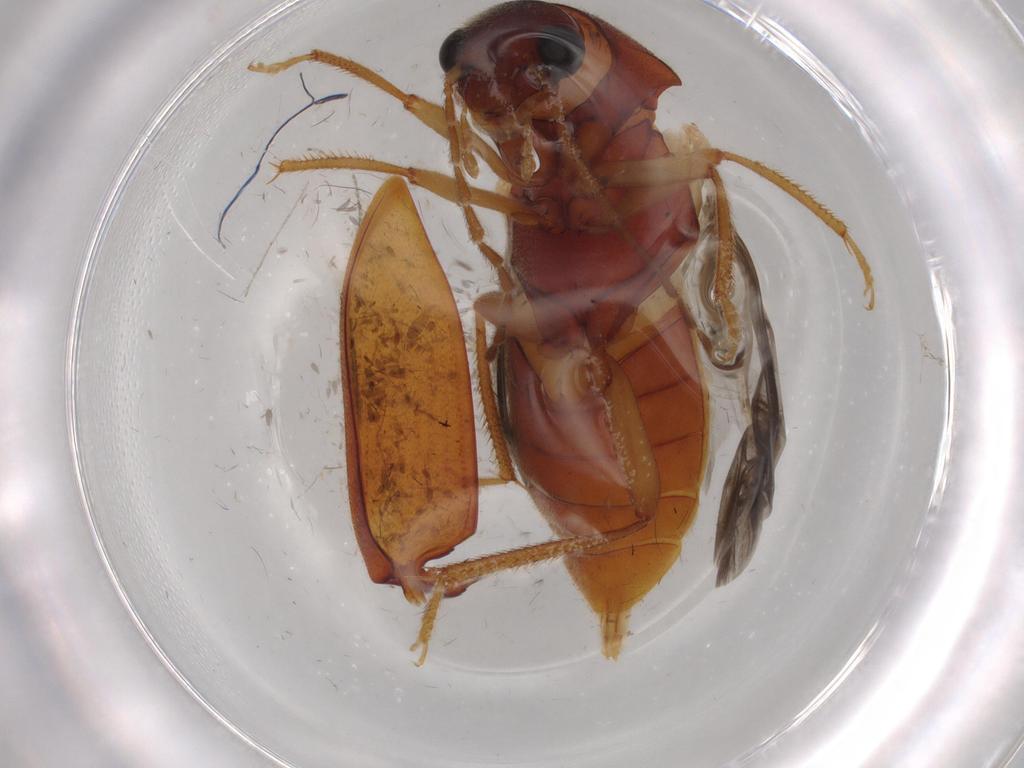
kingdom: Animalia
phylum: Arthropoda
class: Insecta
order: Coleoptera
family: Ptilodactylidae
